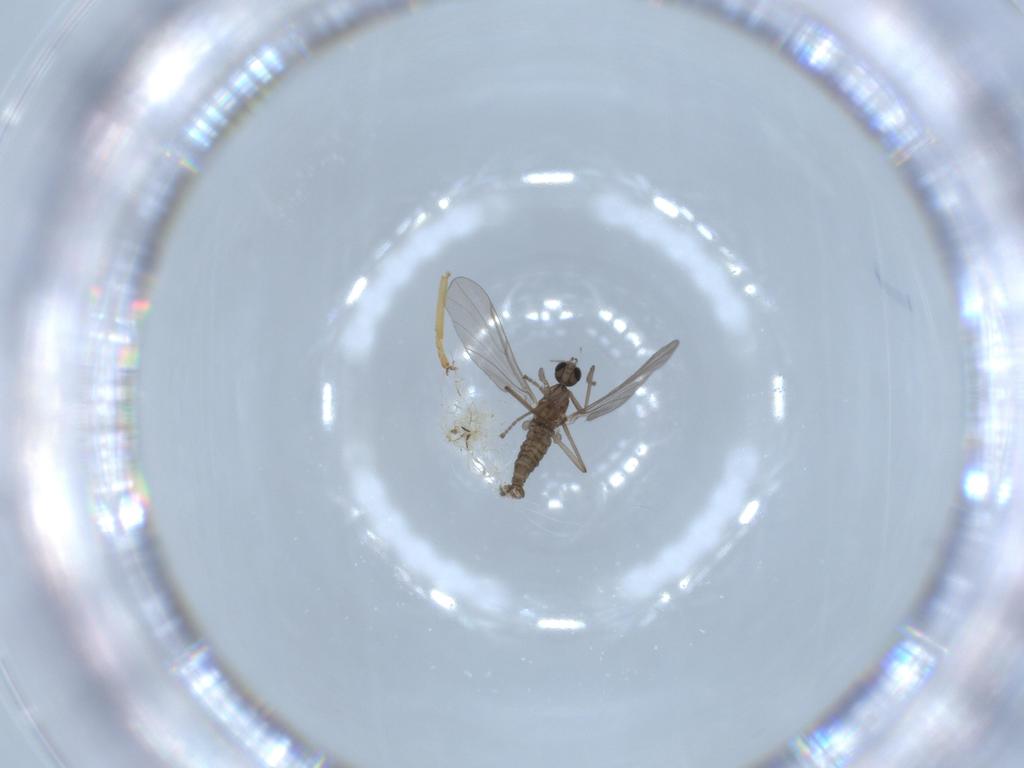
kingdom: Animalia
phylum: Arthropoda
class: Insecta
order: Diptera
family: Cecidomyiidae
